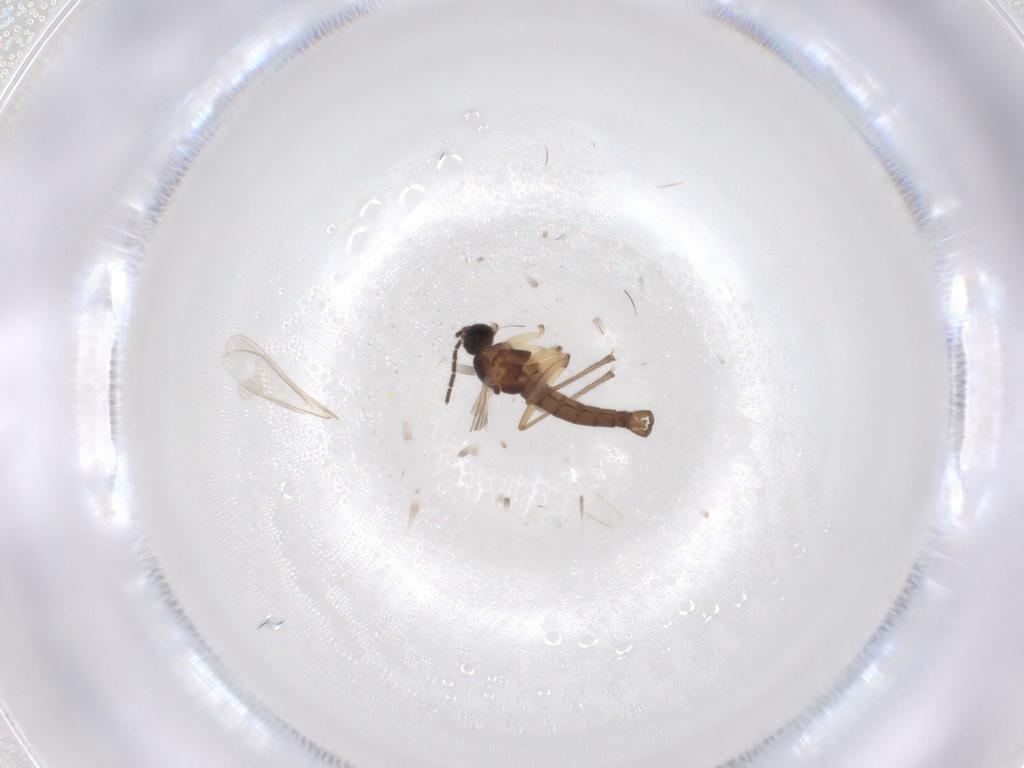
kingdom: Animalia
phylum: Arthropoda
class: Insecta
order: Diptera
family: Sciaridae
